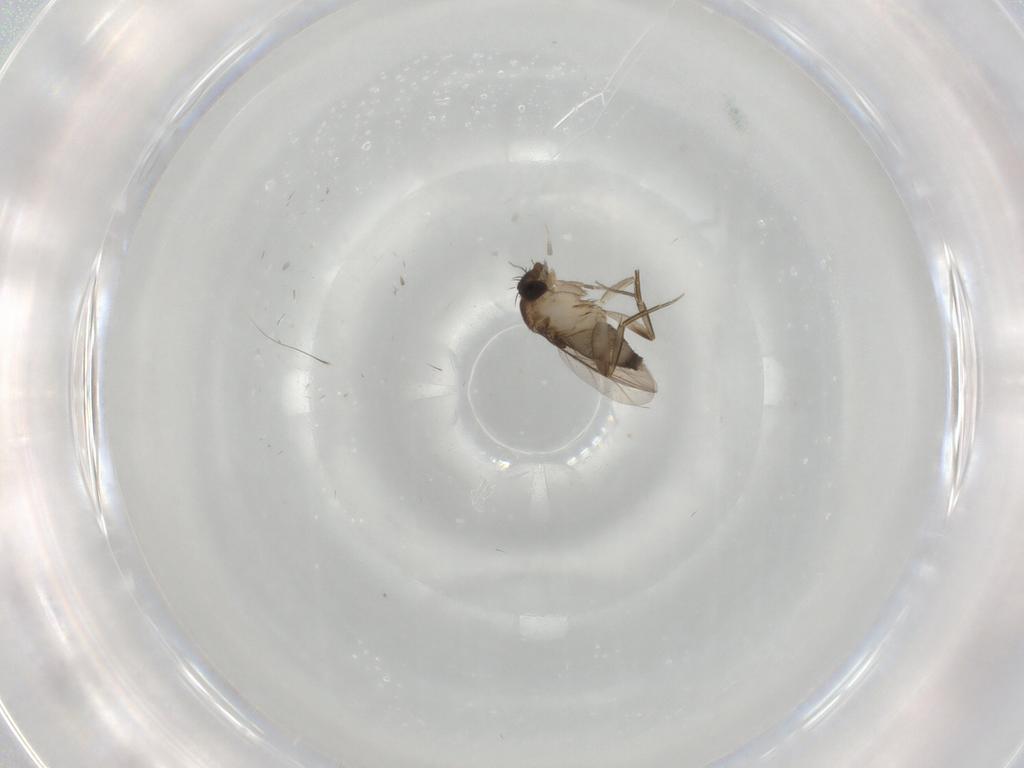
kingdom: Animalia
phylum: Arthropoda
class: Insecta
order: Diptera
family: Phoridae
